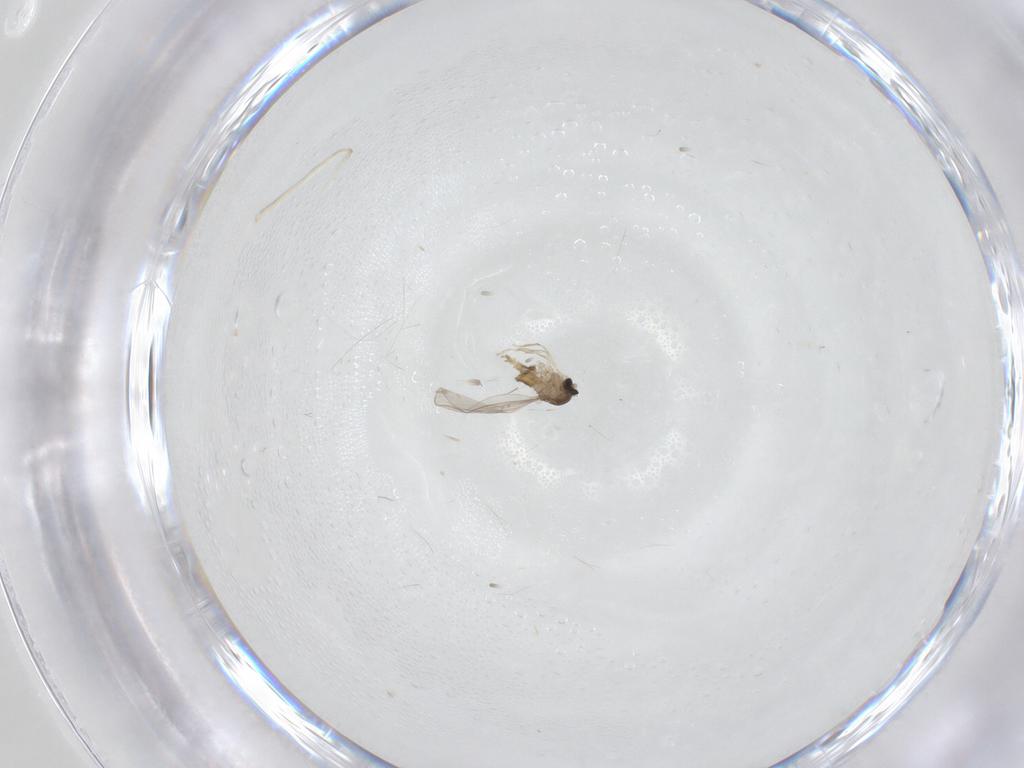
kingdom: Animalia
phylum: Arthropoda
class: Insecta
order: Diptera
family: Cecidomyiidae
